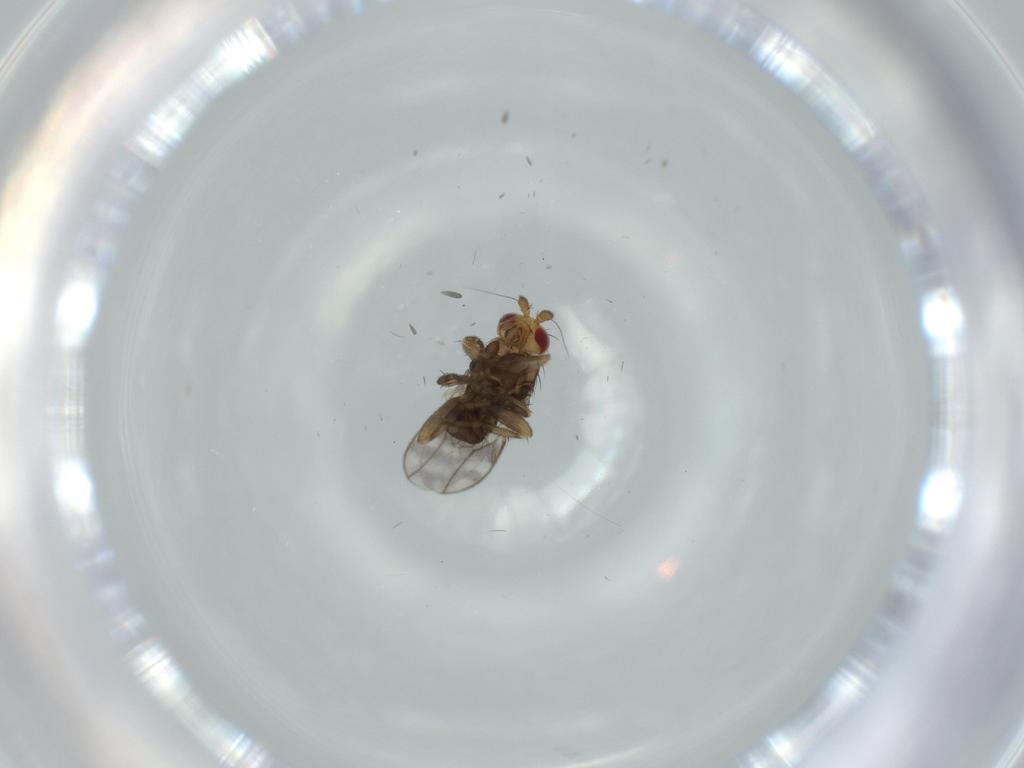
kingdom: Animalia
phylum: Arthropoda
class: Insecta
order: Diptera
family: Sphaeroceridae
